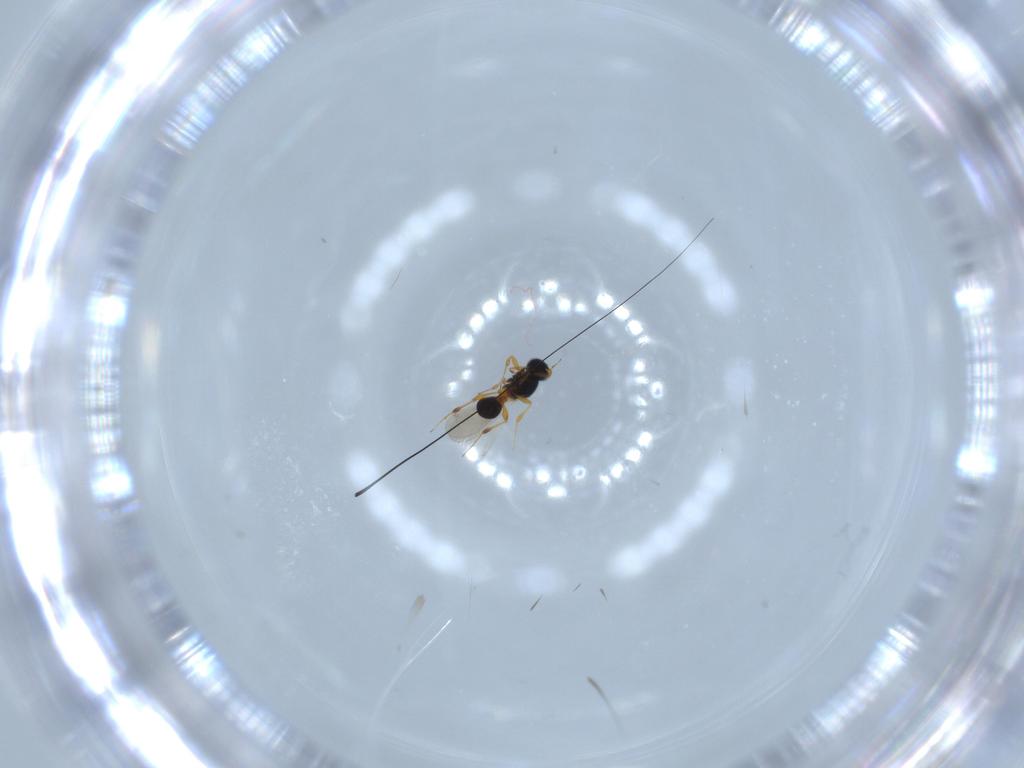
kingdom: Animalia
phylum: Arthropoda
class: Insecta
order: Hymenoptera
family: Platygastridae
